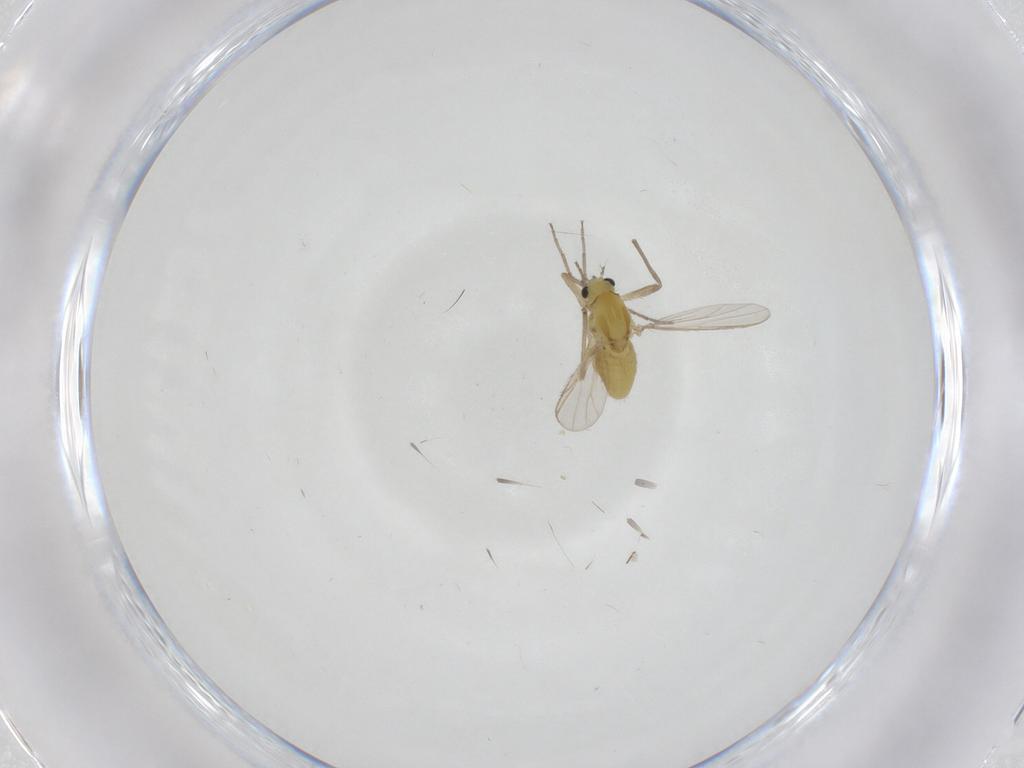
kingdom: Animalia
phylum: Arthropoda
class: Insecta
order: Diptera
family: Chironomidae
